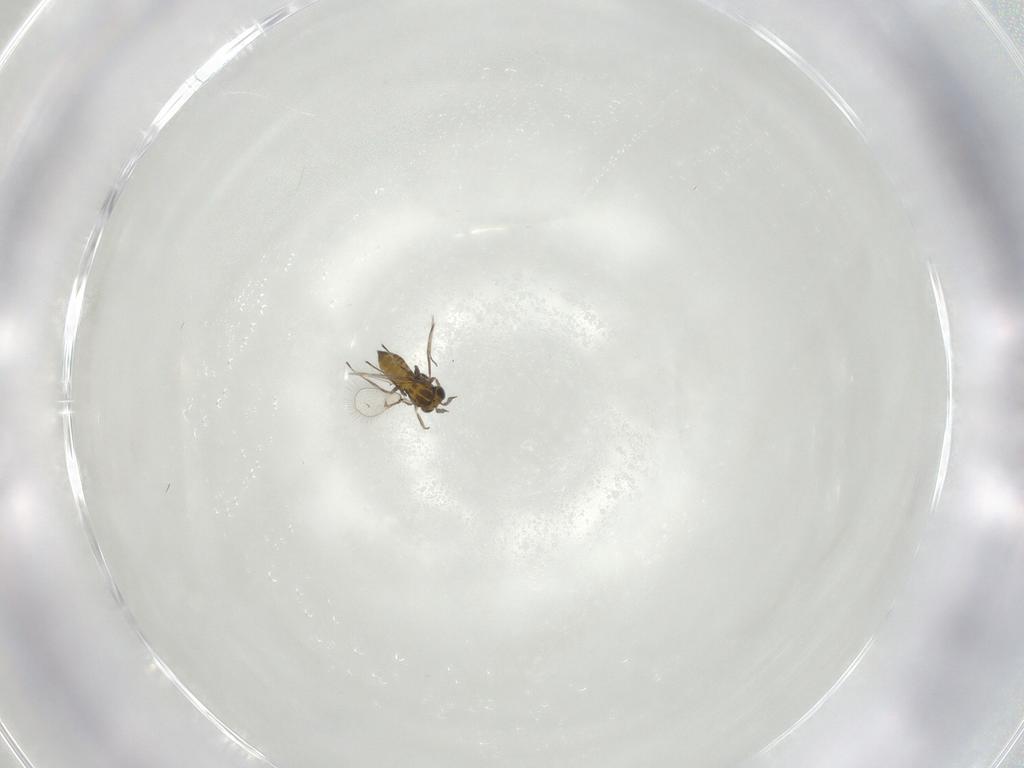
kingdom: Animalia
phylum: Arthropoda
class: Insecta
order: Hymenoptera
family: Trichogrammatidae
